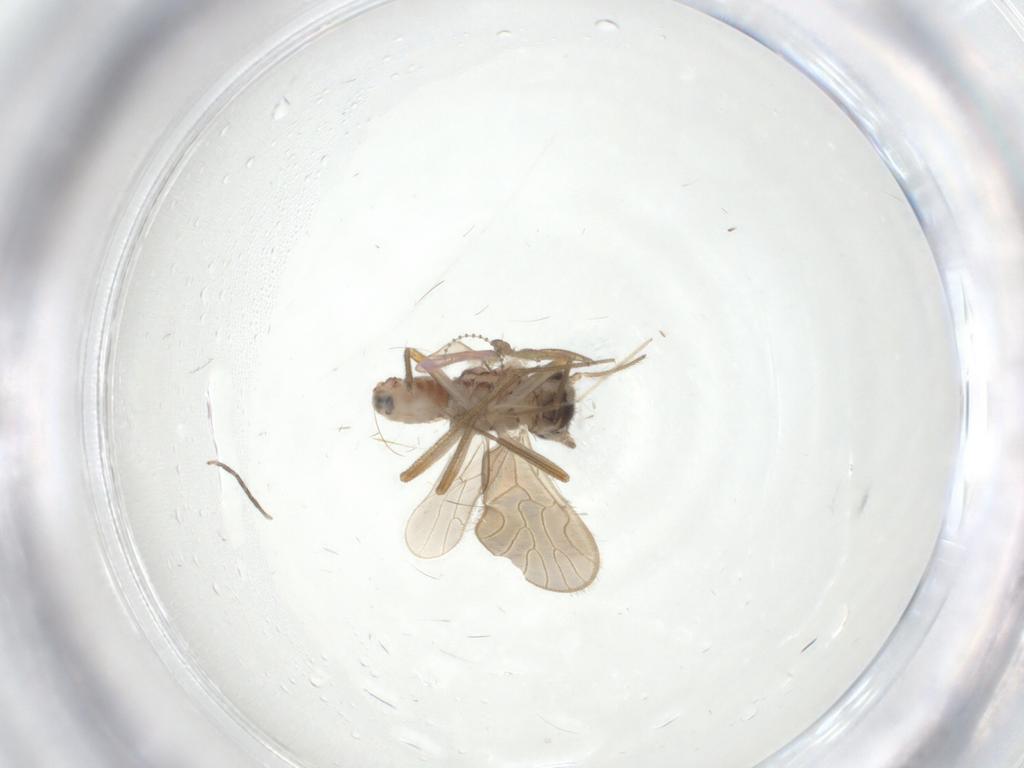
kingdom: Animalia
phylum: Arthropoda
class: Insecta
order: Psocodea
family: Mesopsocidae
